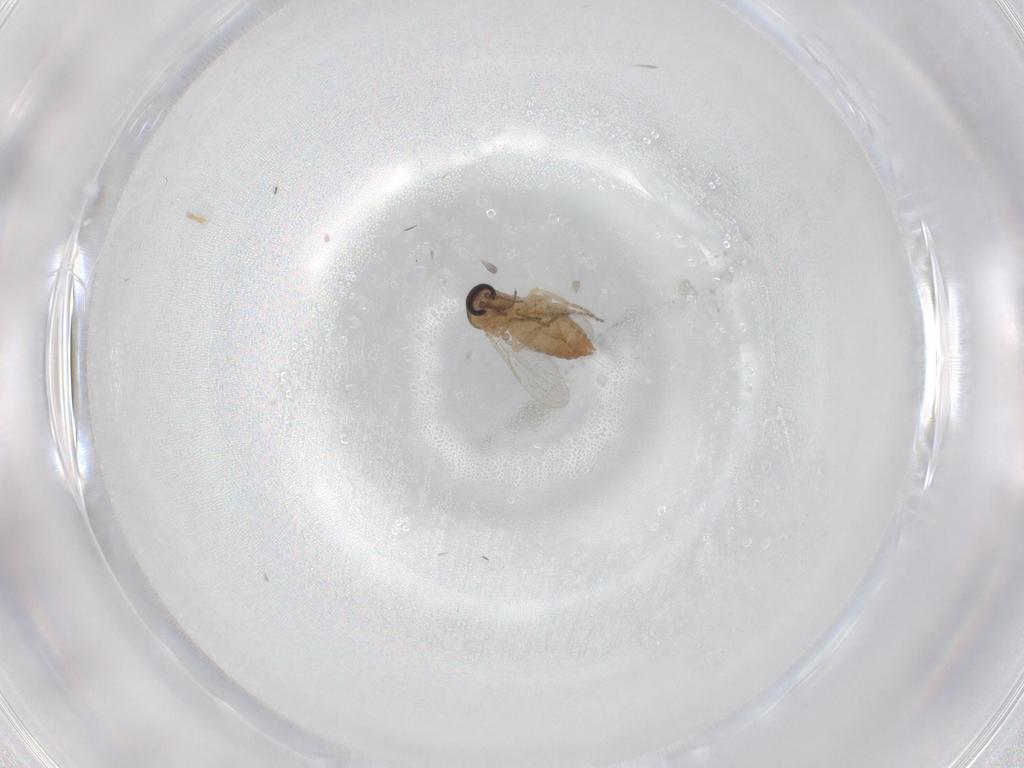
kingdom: Animalia
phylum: Arthropoda
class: Insecta
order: Diptera
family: Ceratopogonidae
